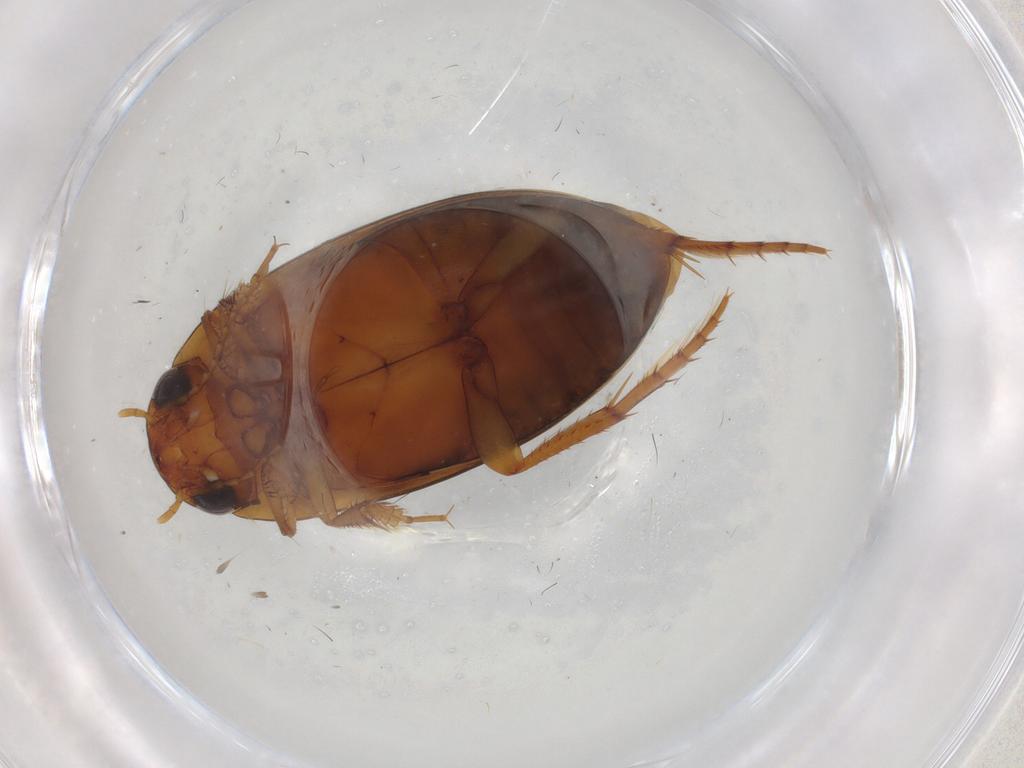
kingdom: Animalia
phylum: Arthropoda
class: Insecta
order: Coleoptera
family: Dytiscidae
